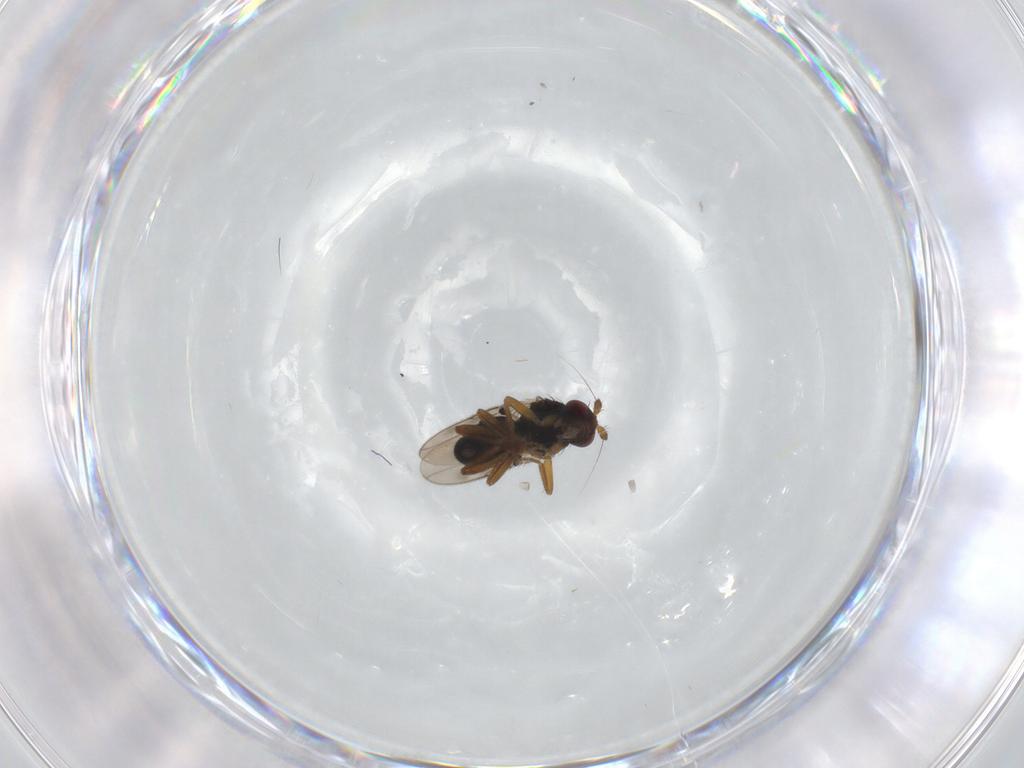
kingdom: Animalia
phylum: Arthropoda
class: Insecta
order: Diptera
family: Sphaeroceridae
